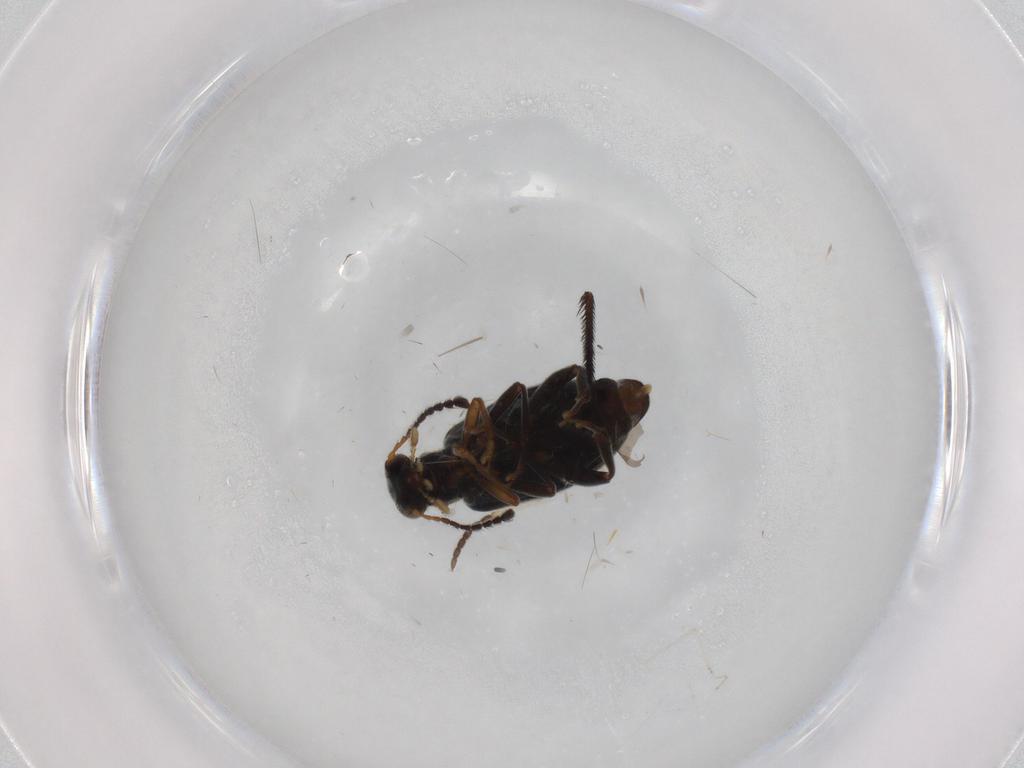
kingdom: Animalia
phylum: Arthropoda
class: Insecta
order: Coleoptera
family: Aderidae
